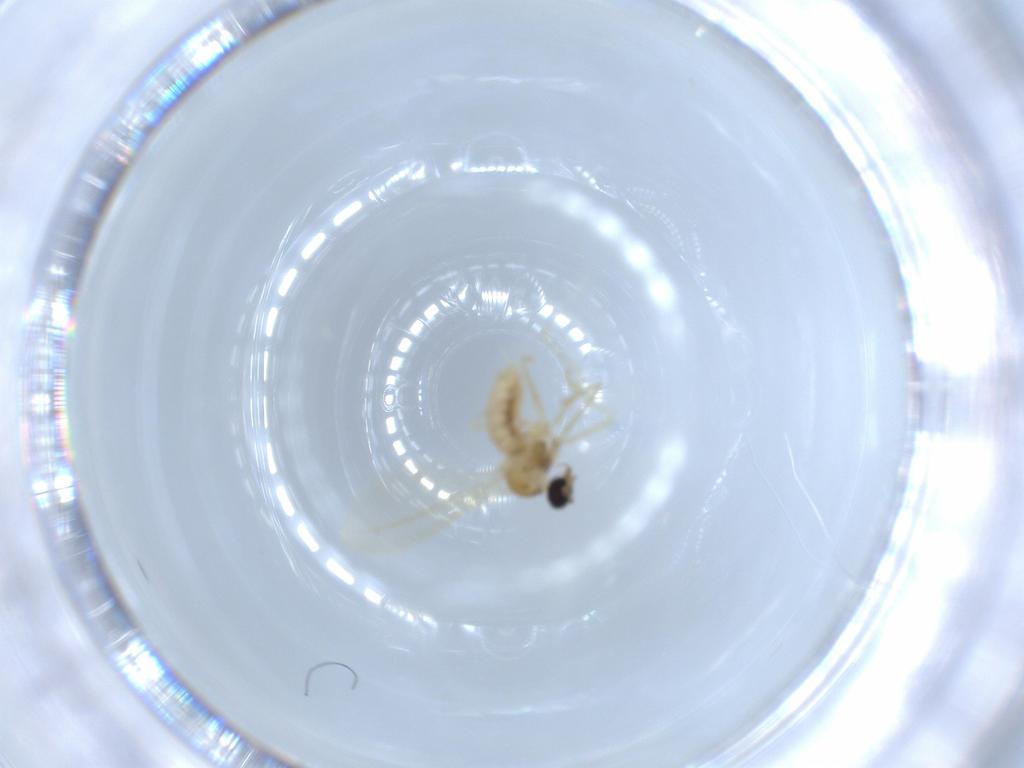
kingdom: Animalia
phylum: Arthropoda
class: Insecta
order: Diptera
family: Cecidomyiidae
